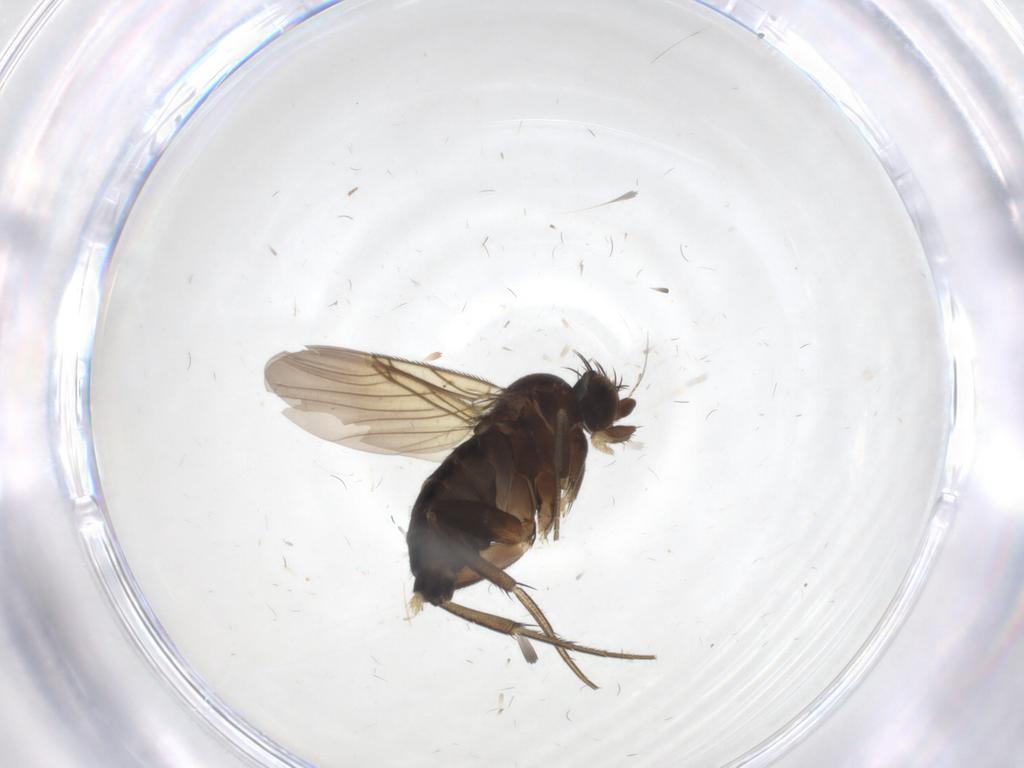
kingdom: Animalia
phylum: Arthropoda
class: Insecta
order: Diptera
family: Phoridae
